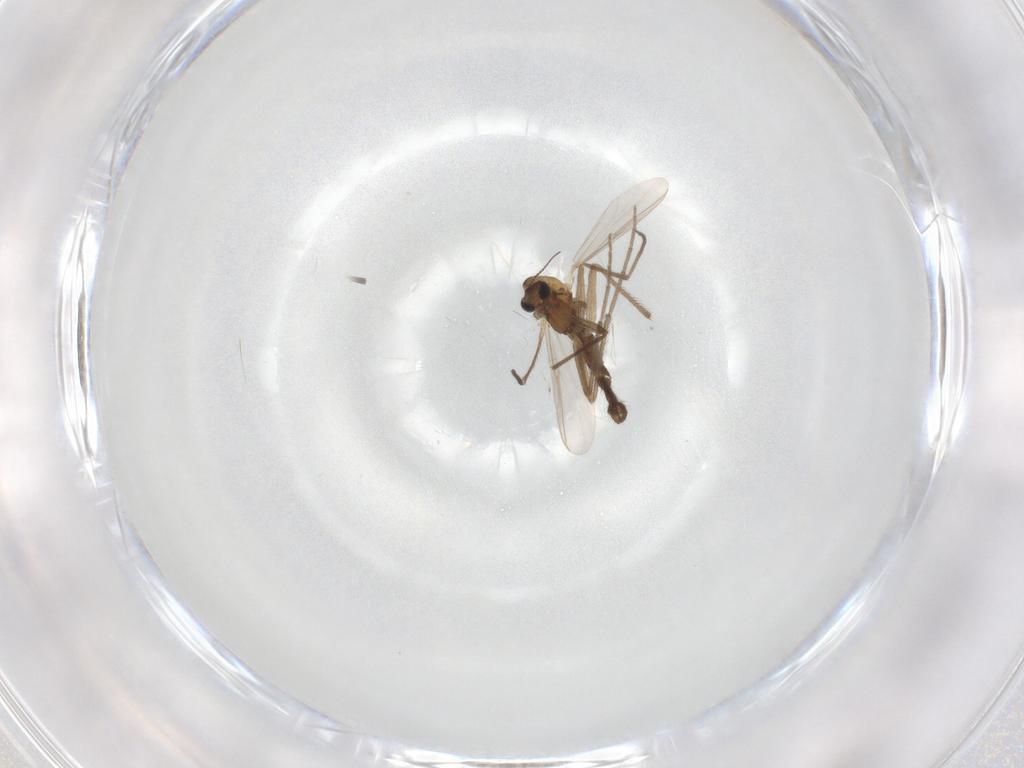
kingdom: Animalia
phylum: Arthropoda
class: Insecta
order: Diptera
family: Chironomidae
